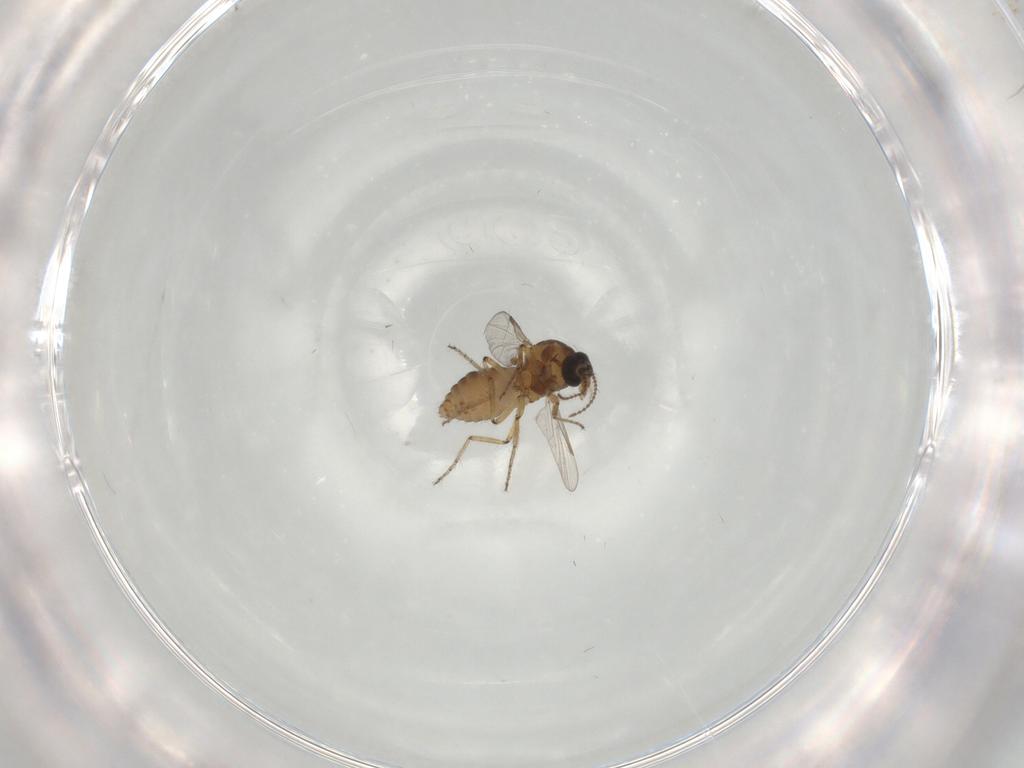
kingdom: Animalia
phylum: Arthropoda
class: Insecta
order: Diptera
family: Ceratopogonidae
